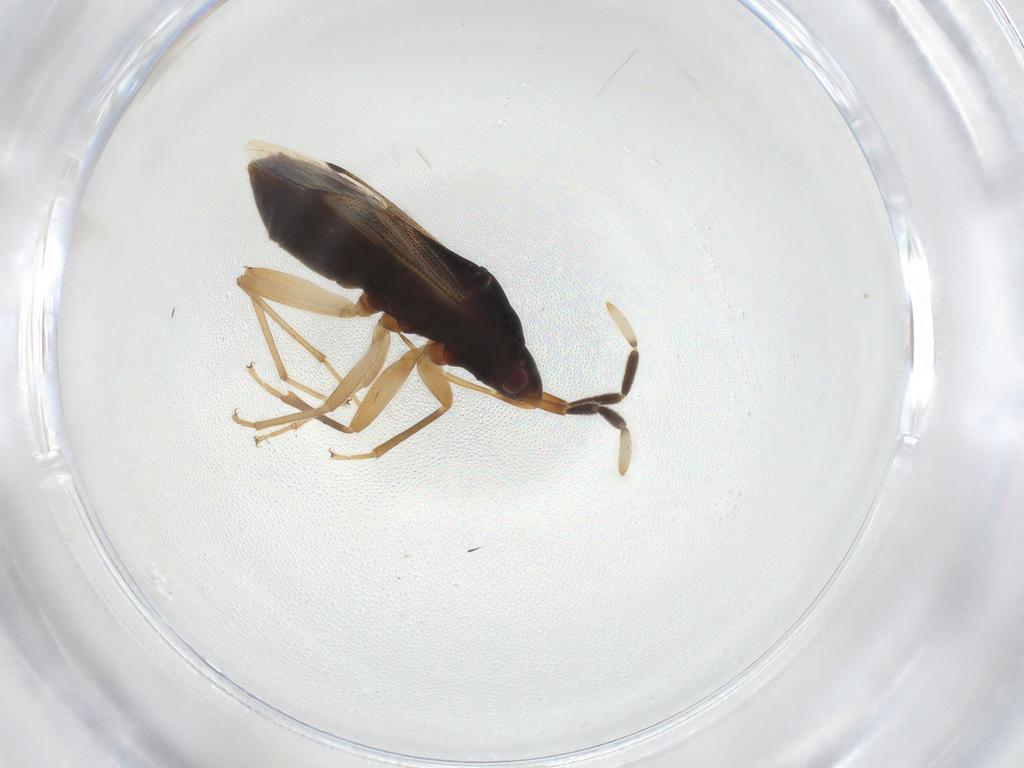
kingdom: Animalia
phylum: Arthropoda
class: Insecta
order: Hemiptera
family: Rhyparochromidae
